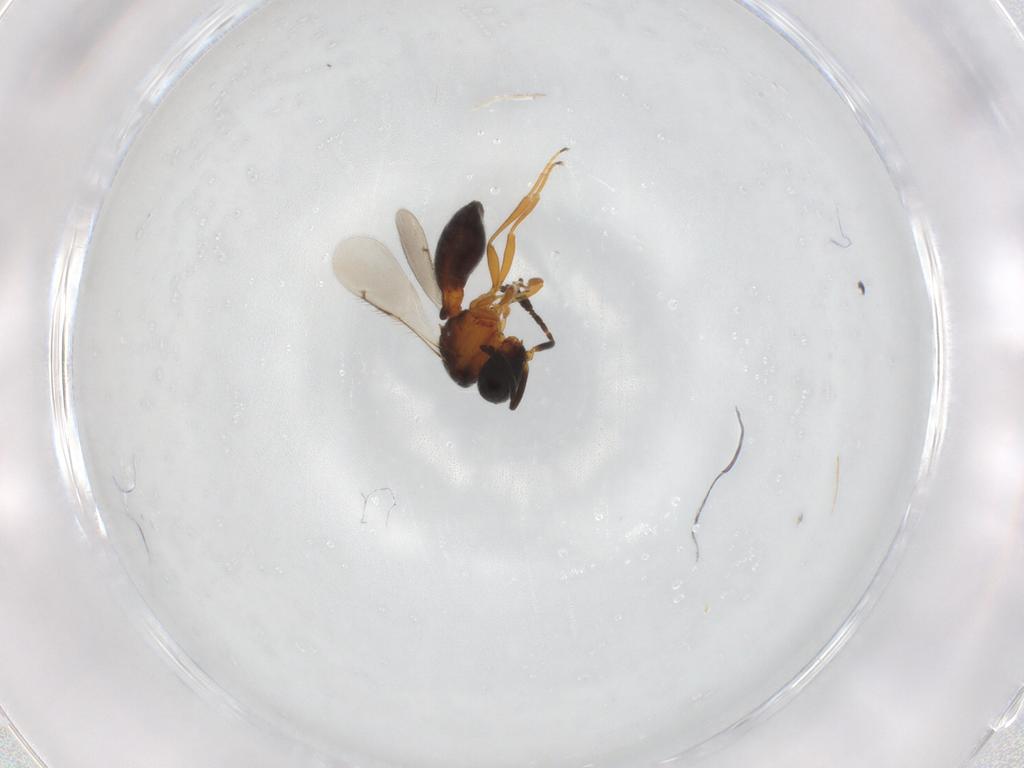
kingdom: Animalia
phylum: Arthropoda
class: Insecta
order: Hymenoptera
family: Scelionidae
